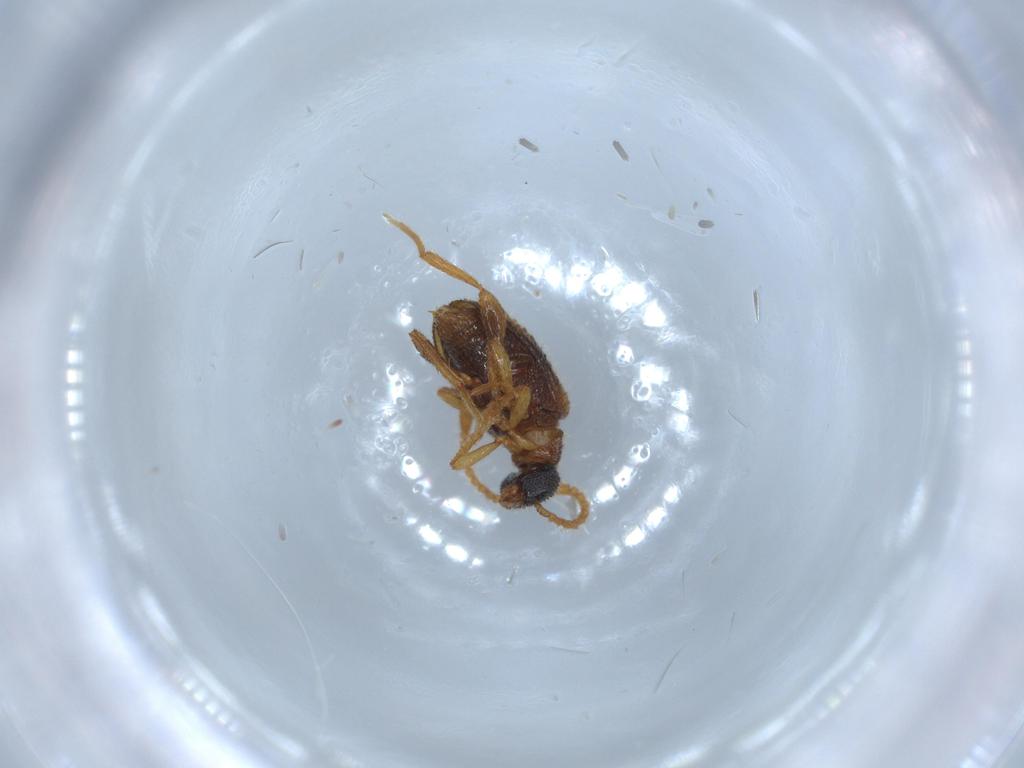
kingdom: Animalia
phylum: Arthropoda
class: Insecta
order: Coleoptera
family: Aderidae
